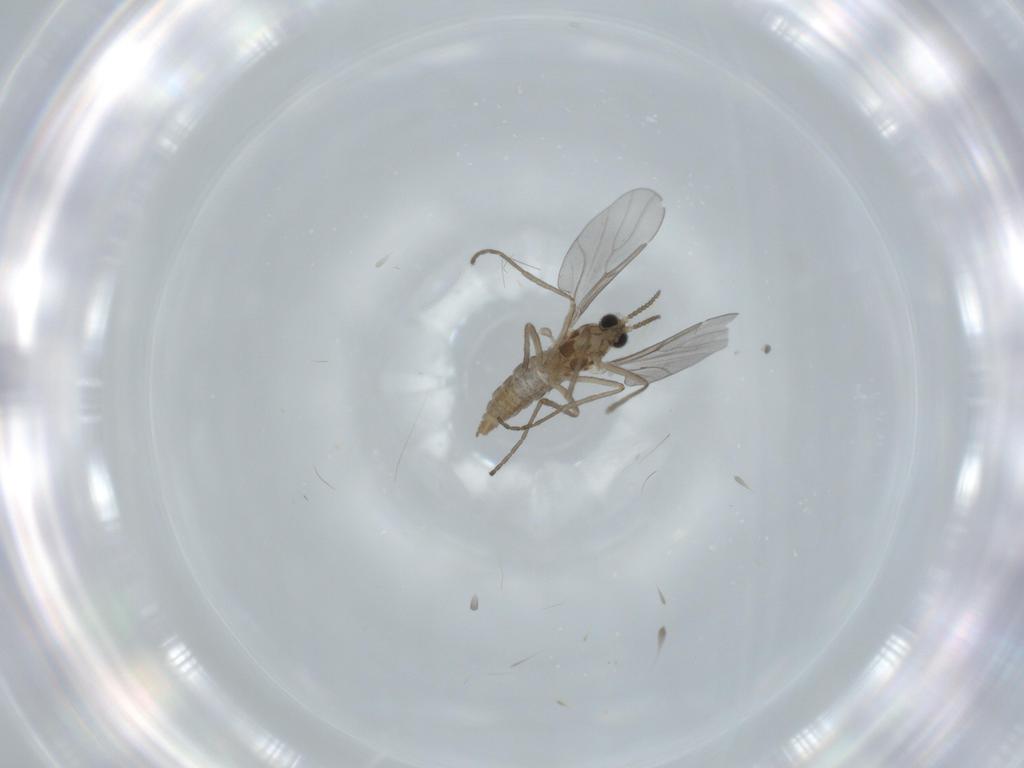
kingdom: Animalia
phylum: Arthropoda
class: Insecta
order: Diptera
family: Cecidomyiidae
